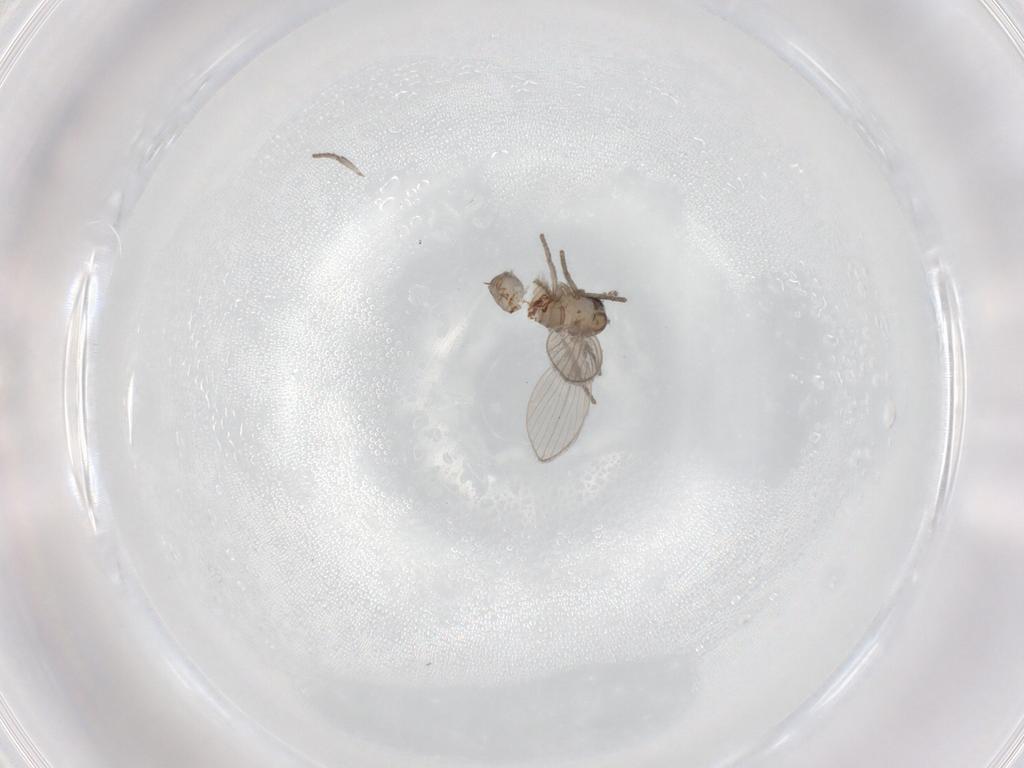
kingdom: Animalia
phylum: Arthropoda
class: Insecta
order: Diptera
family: Psychodidae
